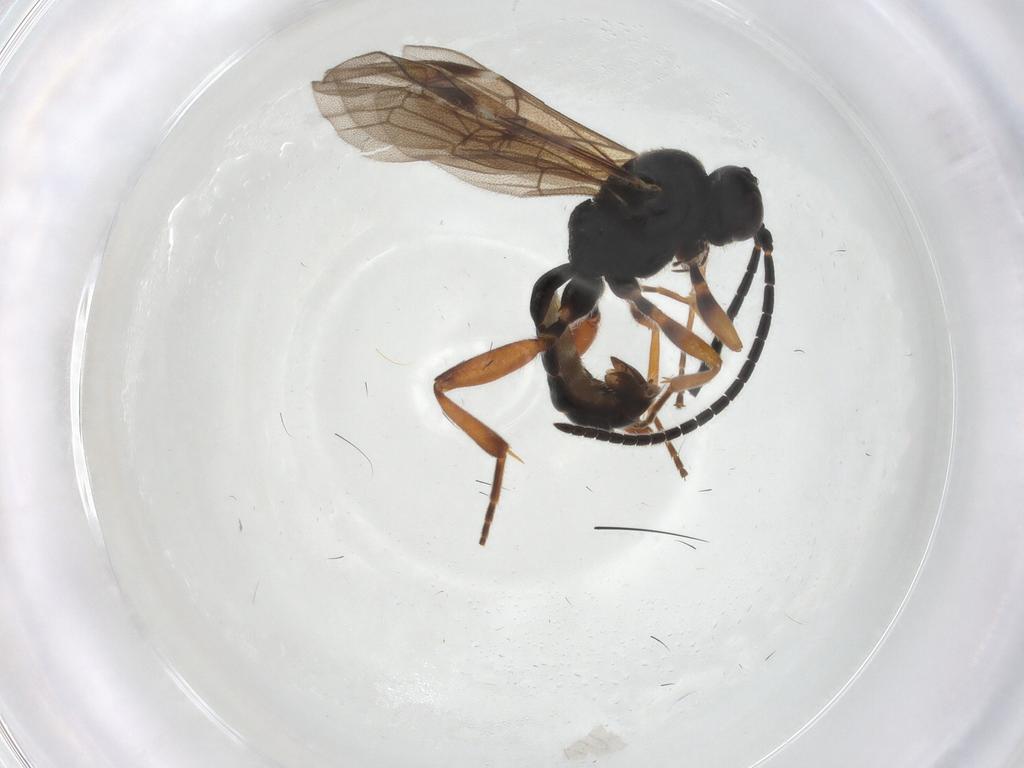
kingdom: Animalia
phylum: Arthropoda
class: Insecta
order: Hymenoptera
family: Ichneumonidae
